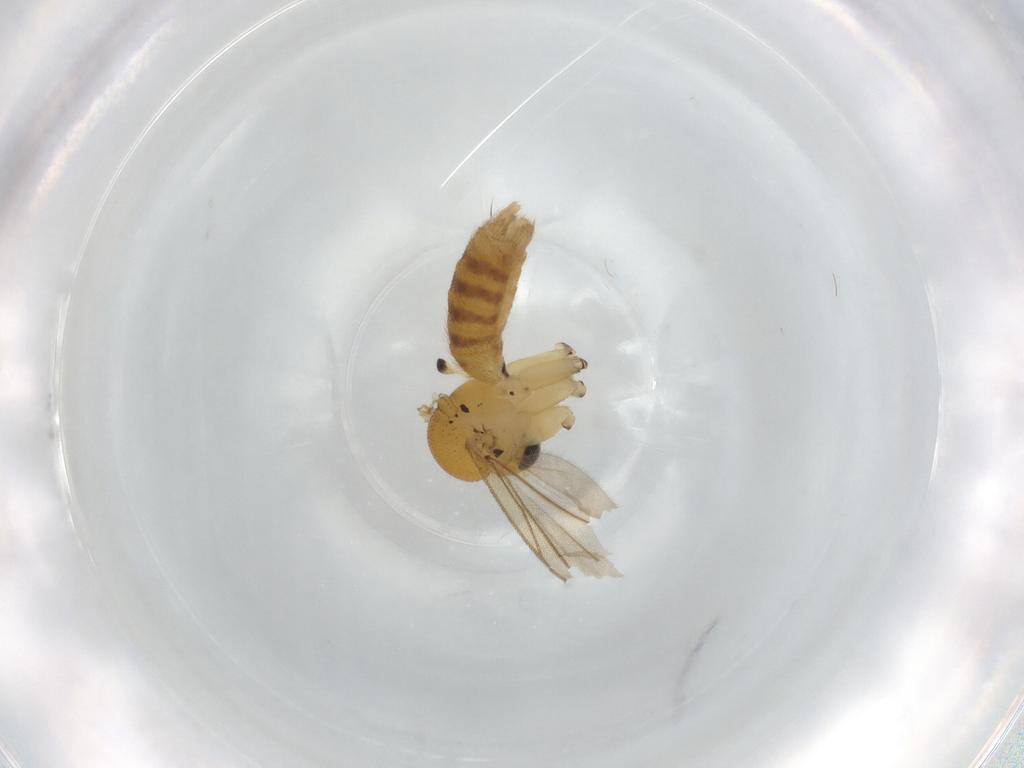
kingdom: Animalia
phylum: Arthropoda
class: Insecta
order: Diptera
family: Mycetophilidae
